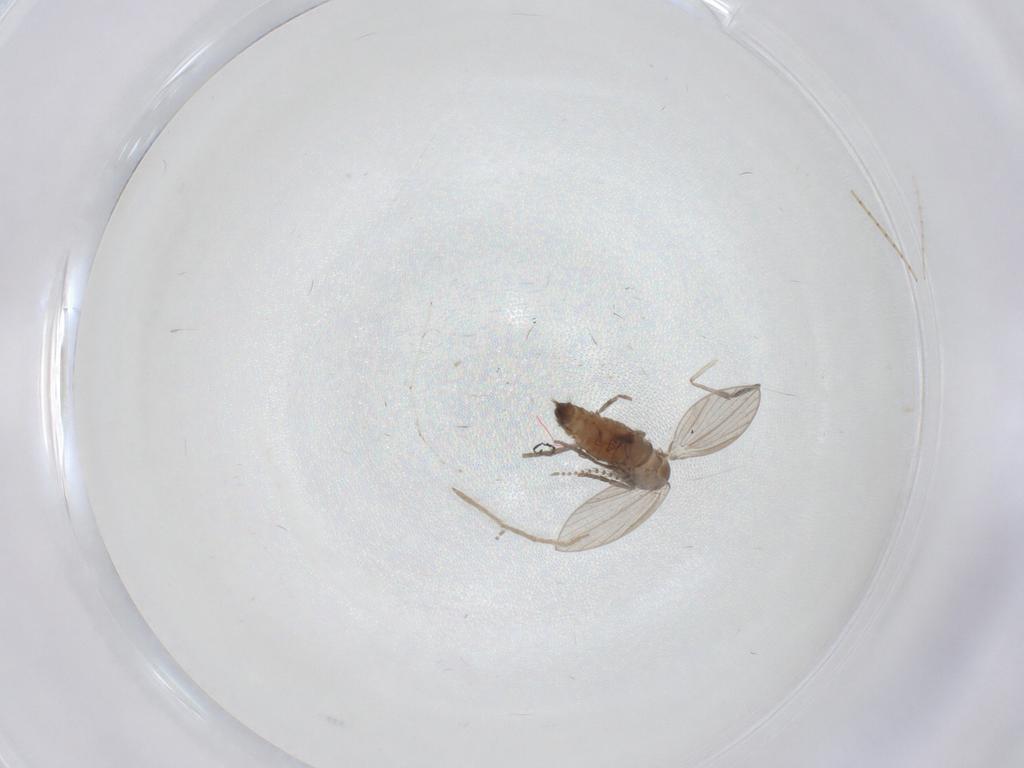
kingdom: Animalia
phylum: Arthropoda
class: Insecta
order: Diptera
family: Psychodidae
